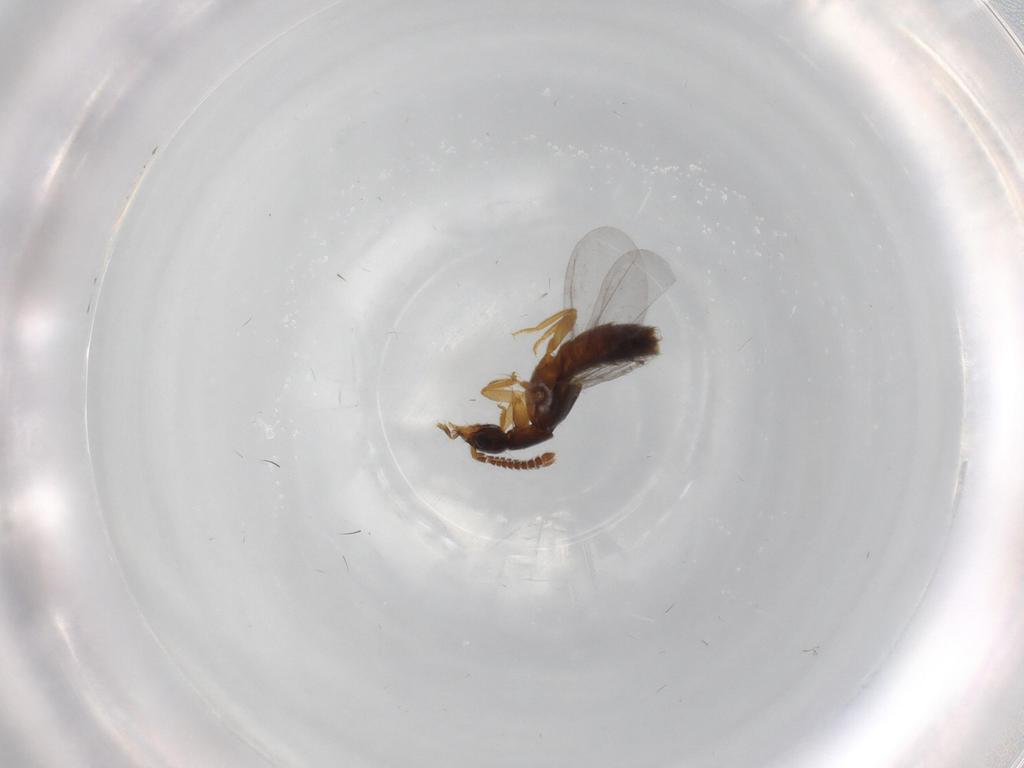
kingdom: Animalia
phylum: Arthropoda
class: Insecta
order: Coleoptera
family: Staphylinidae
